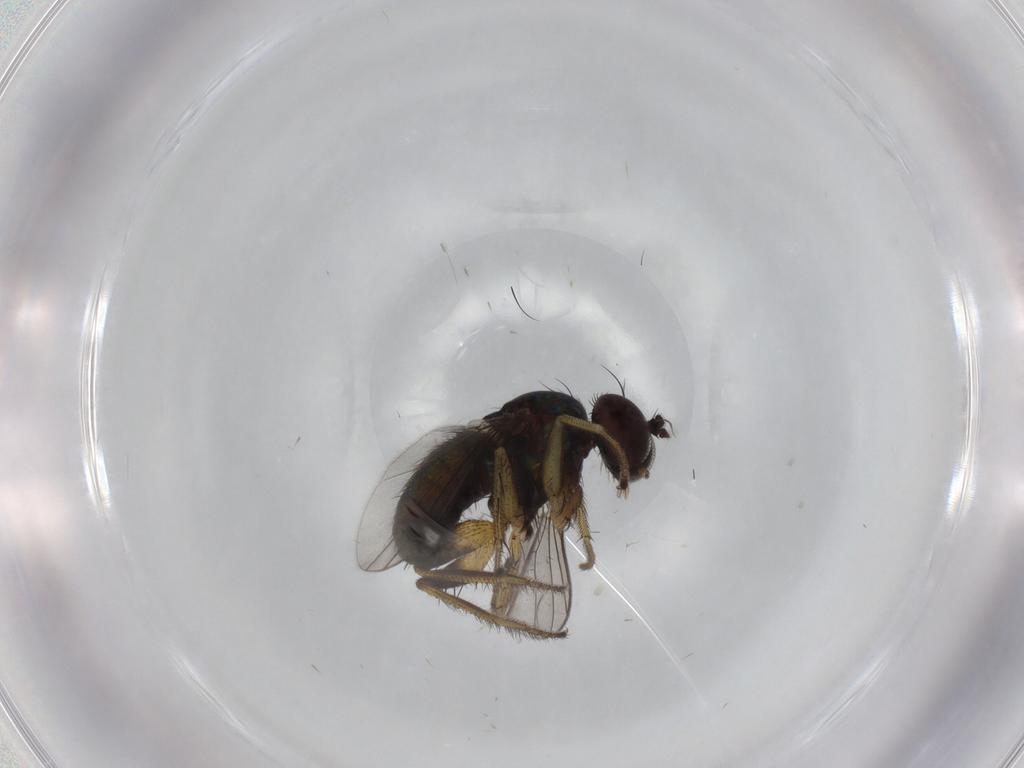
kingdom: Animalia
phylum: Arthropoda
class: Insecta
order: Diptera
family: Dolichopodidae
